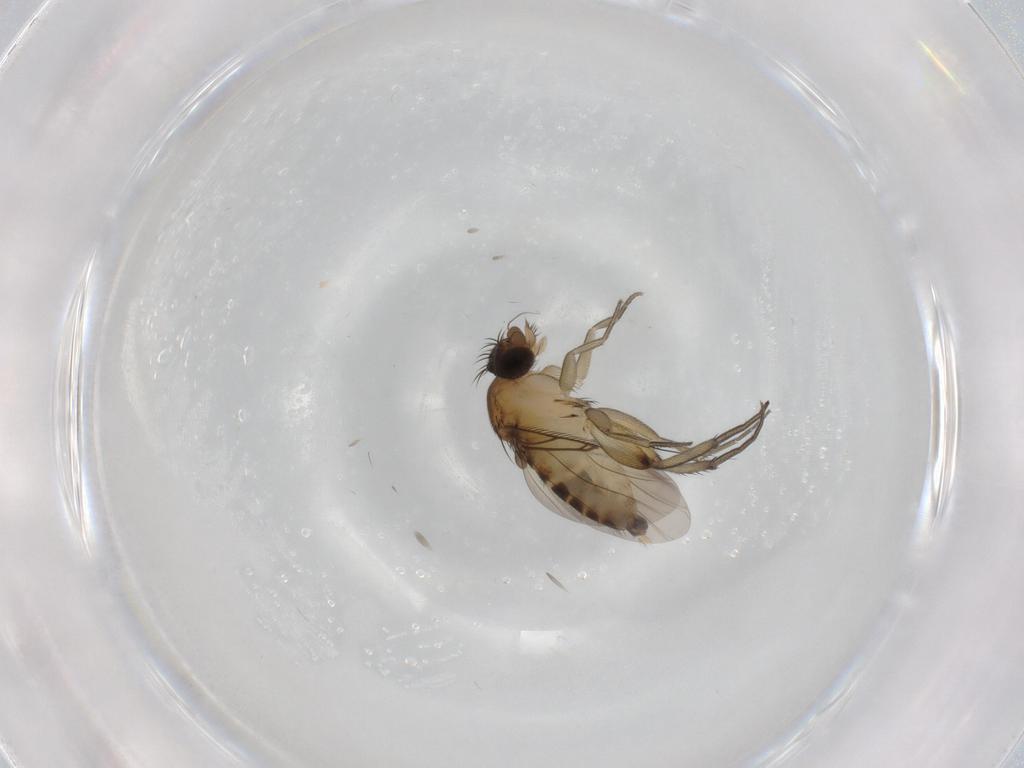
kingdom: Animalia
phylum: Arthropoda
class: Insecta
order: Diptera
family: Phoridae
